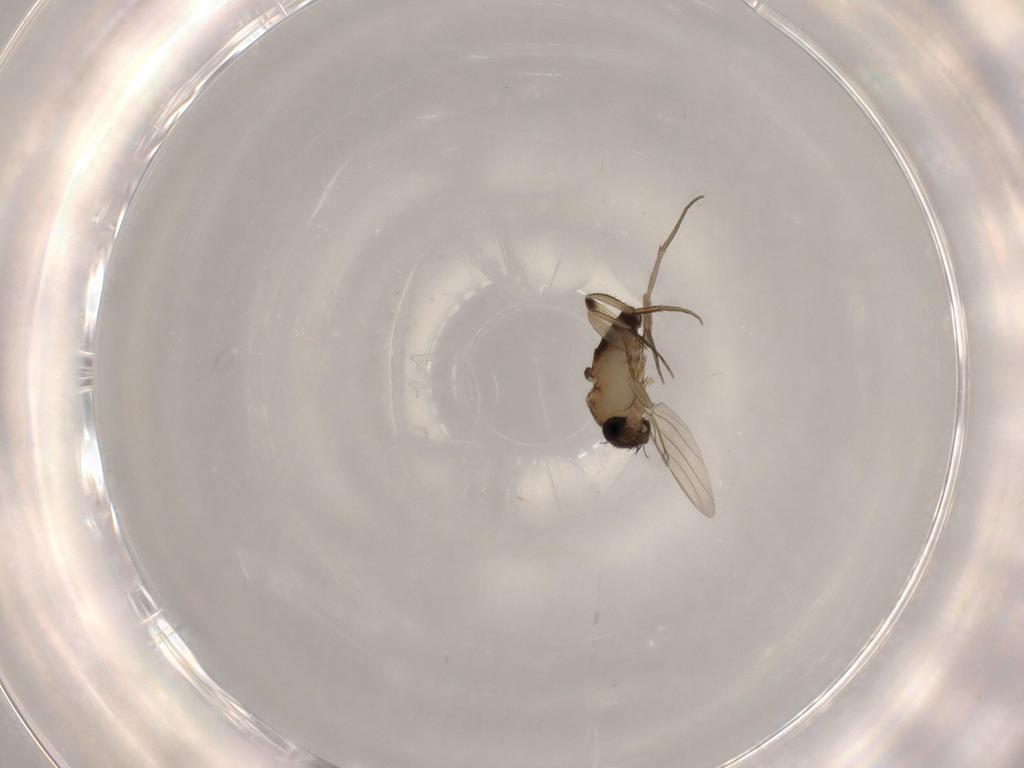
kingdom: Animalia
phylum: Arthropoda
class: Insecta
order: Diptera
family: Phoridae
